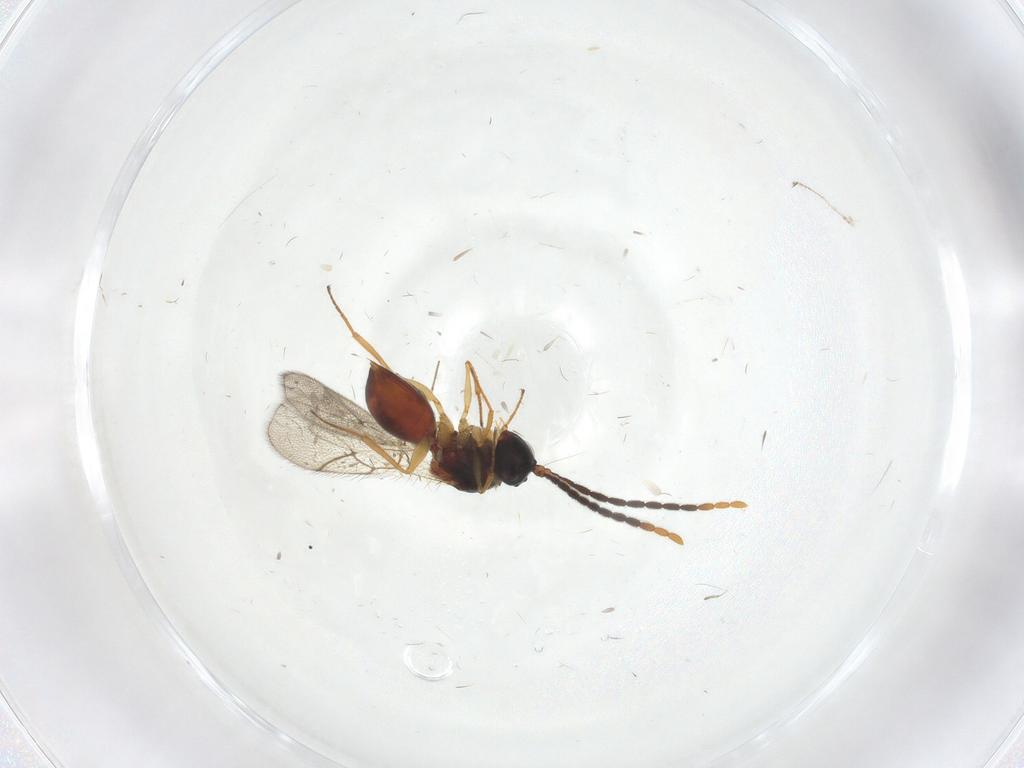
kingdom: Animalia
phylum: Arthropoda
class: Insecta
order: Hymenoptera
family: Figitidae
